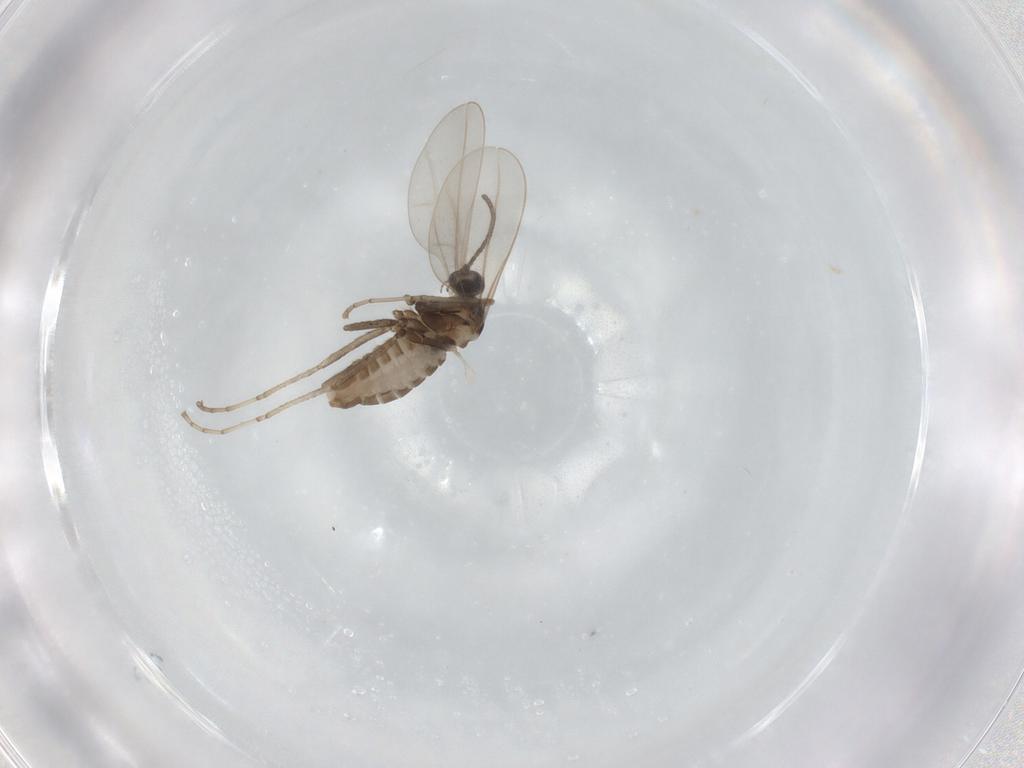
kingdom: Animalia
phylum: Arthropoda
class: Insecta
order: Diptera
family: Cecidomyiidae
